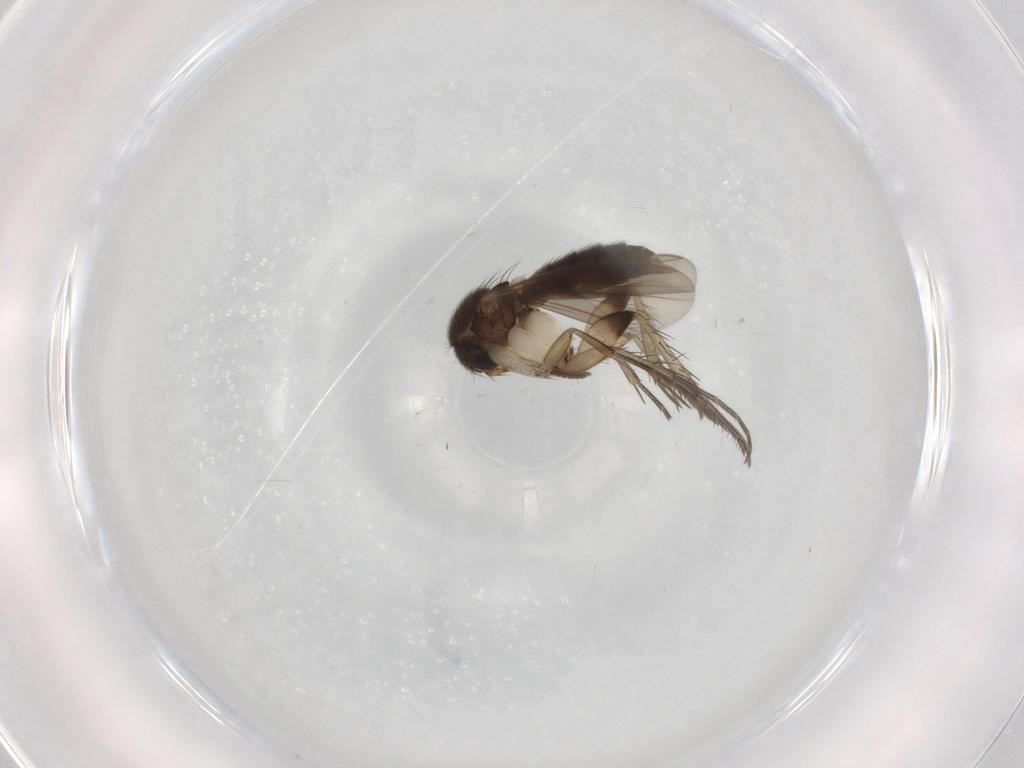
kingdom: Animalia
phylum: Arthropoda
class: Insecta
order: Diptera
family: Mycetophilidae
